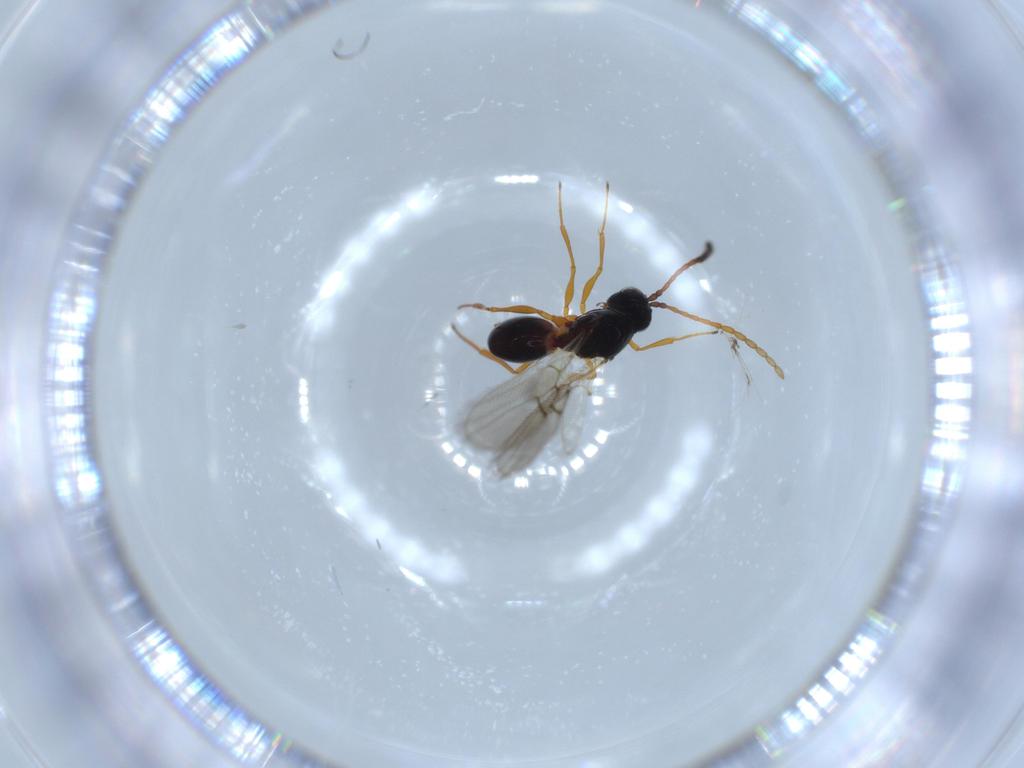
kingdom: Animalia
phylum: Arthropoda
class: Insecta
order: Hymenoptera
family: Figitidae
